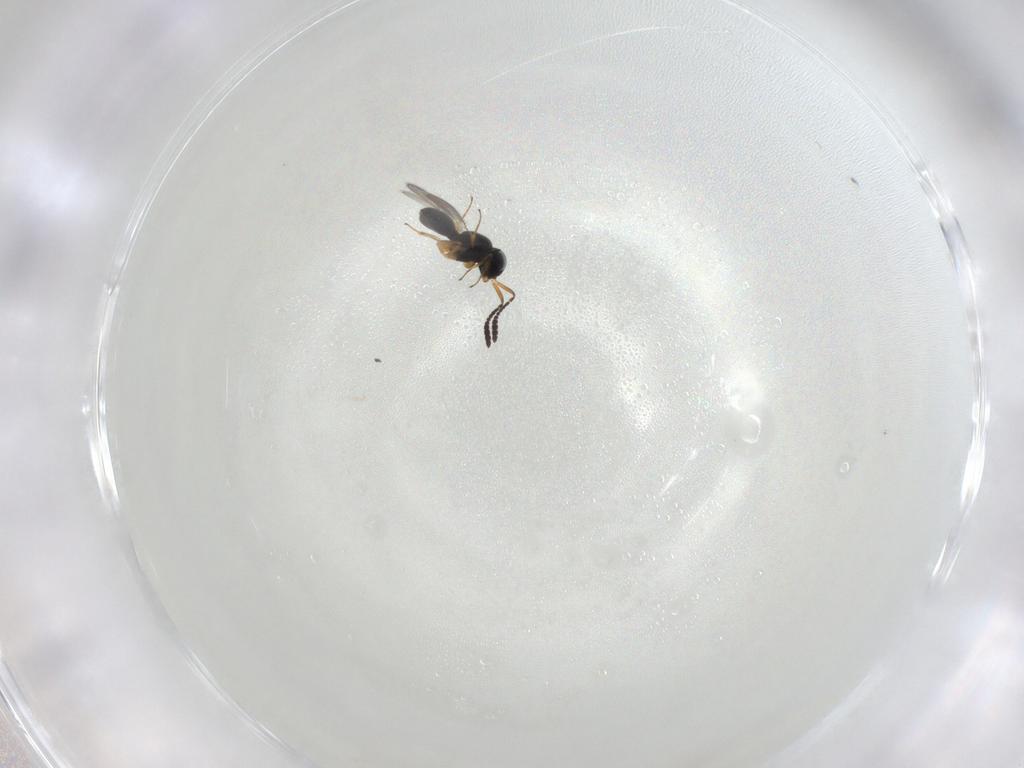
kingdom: Animalia
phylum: Arthropoda
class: Insecta
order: Hymenoptera
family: Scelionidae
